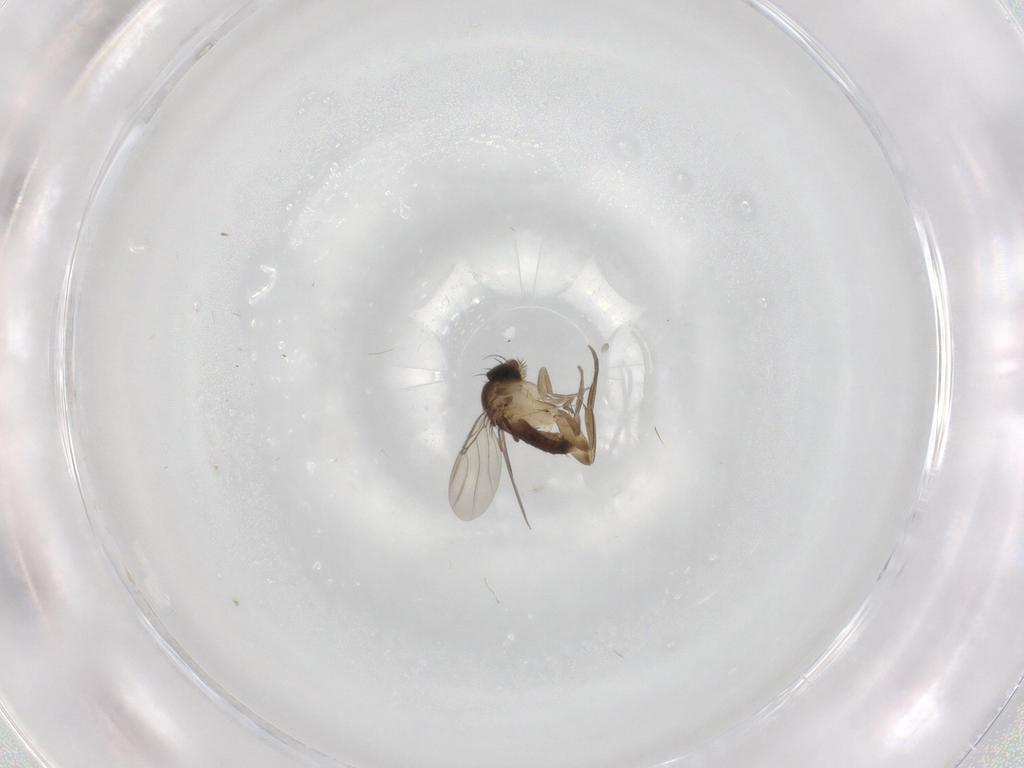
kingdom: Animalia
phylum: Arthropoda
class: Insecta
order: Diptera
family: Phoridae
